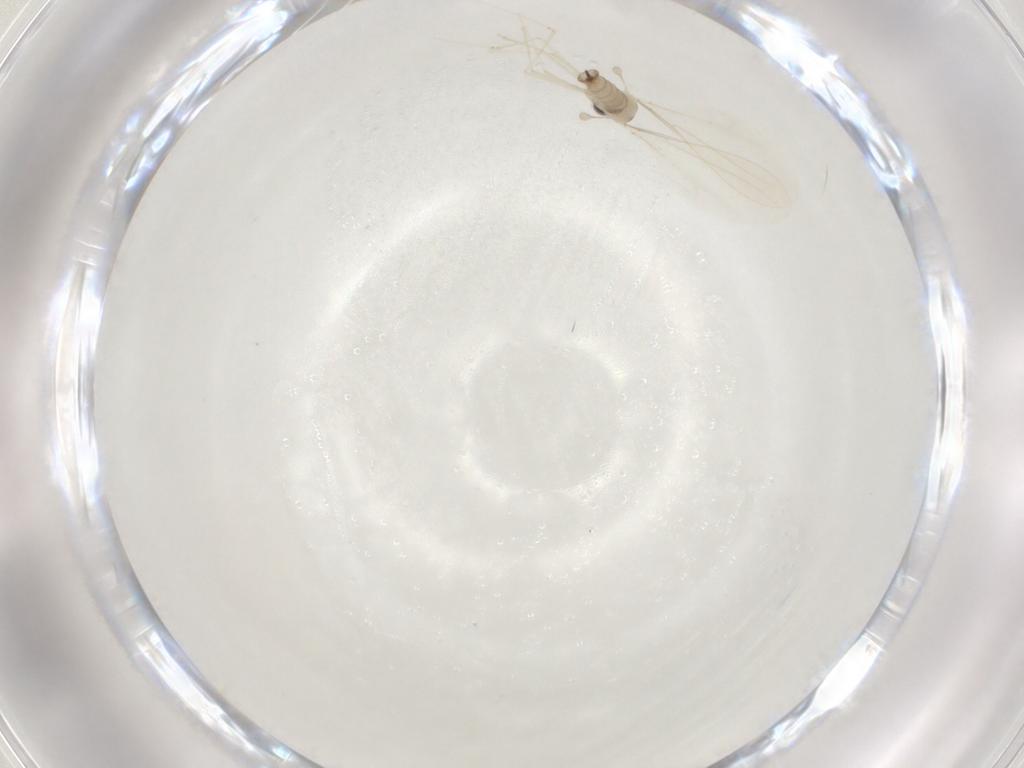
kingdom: Animalia
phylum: Arthropoda
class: Insecta
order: Diptera
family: Cecidomyiidae
